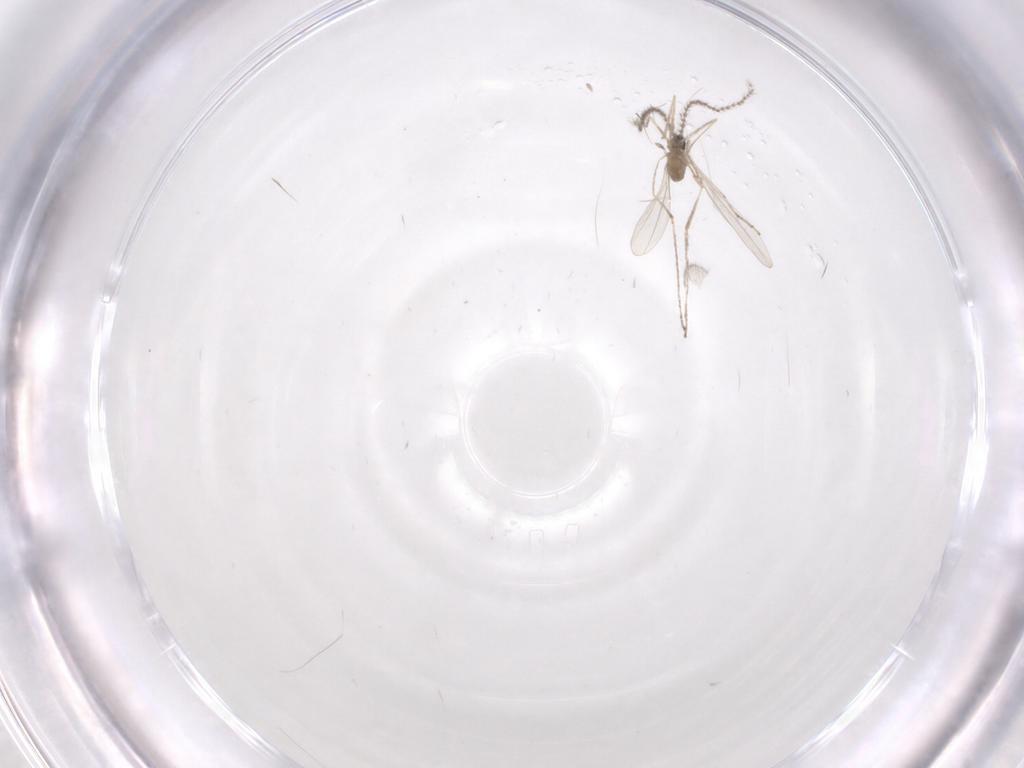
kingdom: Animalia
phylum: Arthropoda
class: Insecta
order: Diptera
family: Cecidomyiidae
